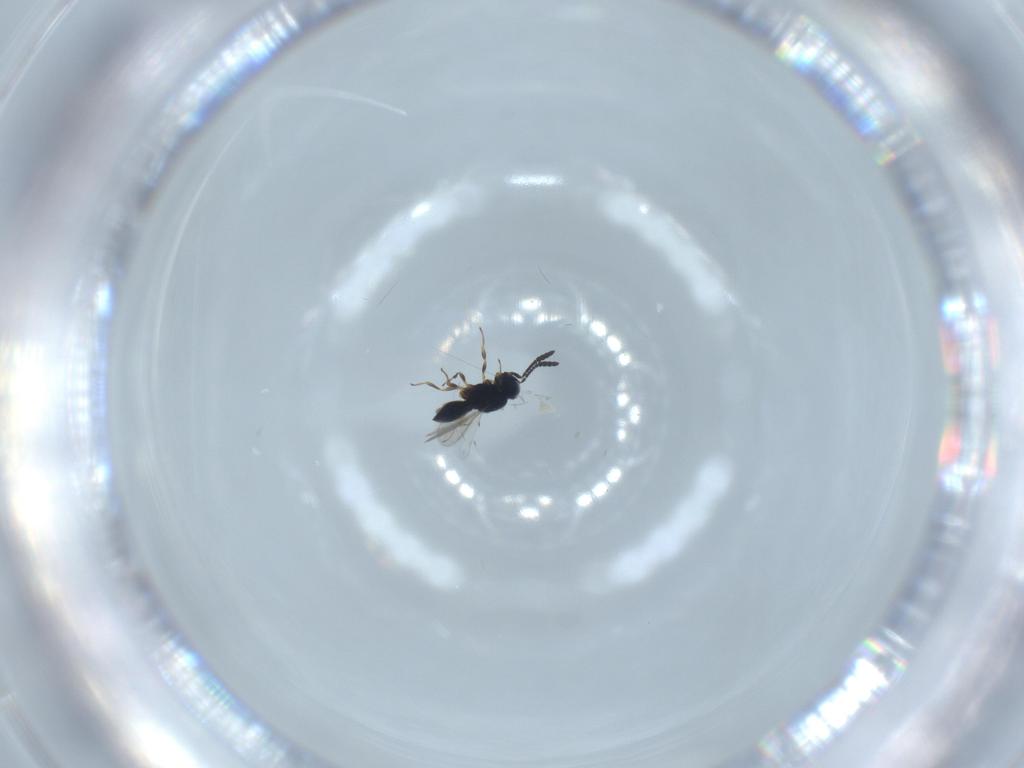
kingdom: Animalia
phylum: Arthropoda
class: Insecta
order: Hymenoptera
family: Scelionidae
